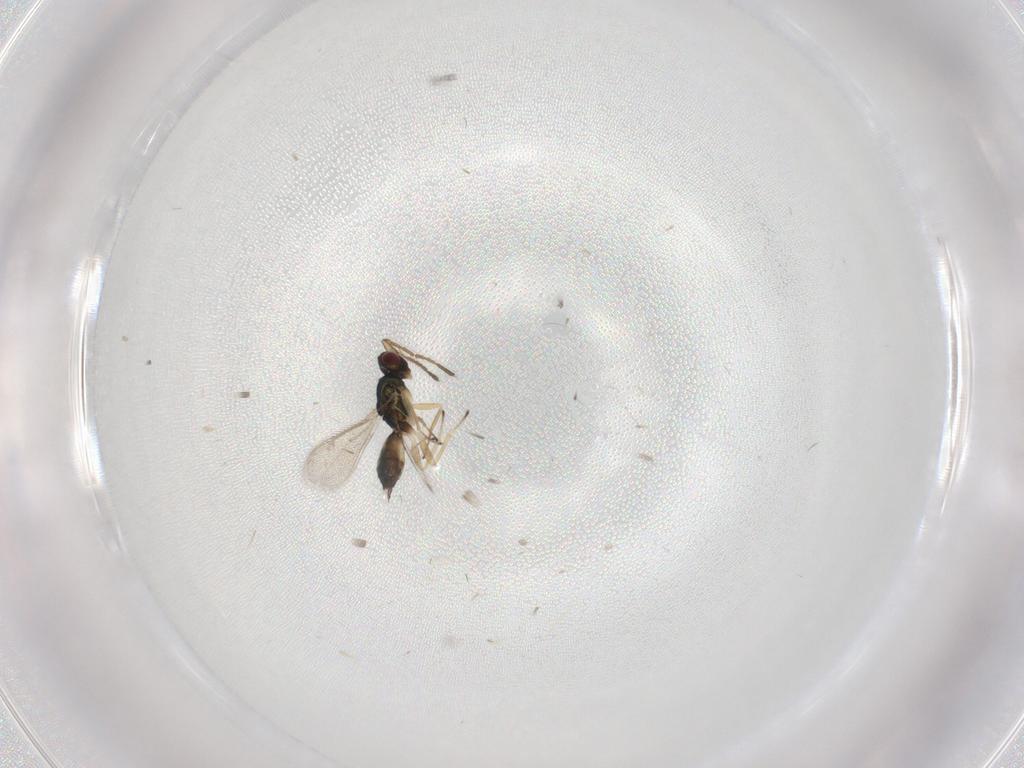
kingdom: Animalia
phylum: Arthropoda
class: Insecta
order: Hymenoptera
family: Eulophidae
